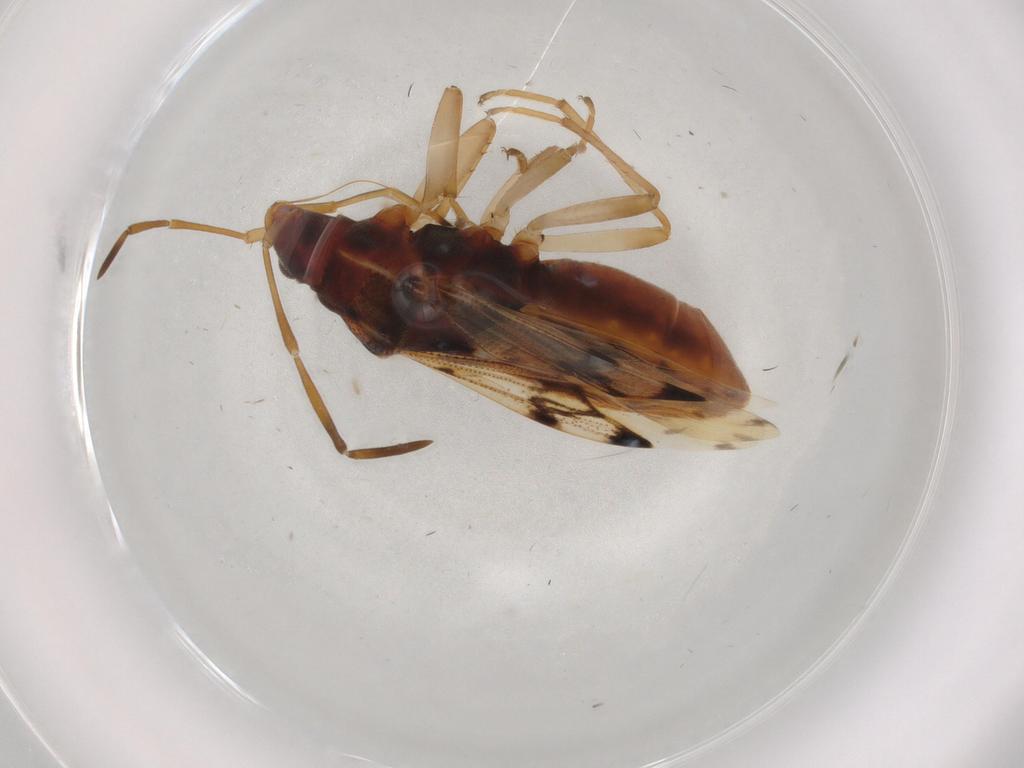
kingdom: Animalia
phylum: Arthropoda
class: Insecta
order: Hemiptera
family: Rhyparochromidae
